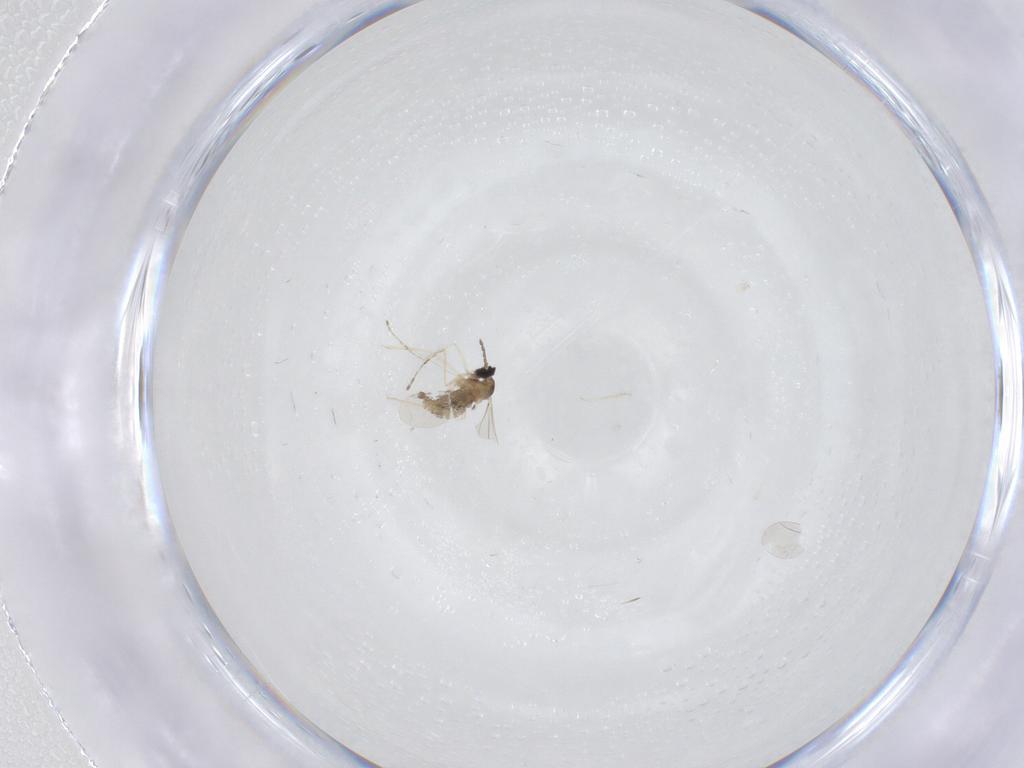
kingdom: Animalia
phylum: Arthropoda
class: Insecta
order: Diptera
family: Cecidomyiidae
